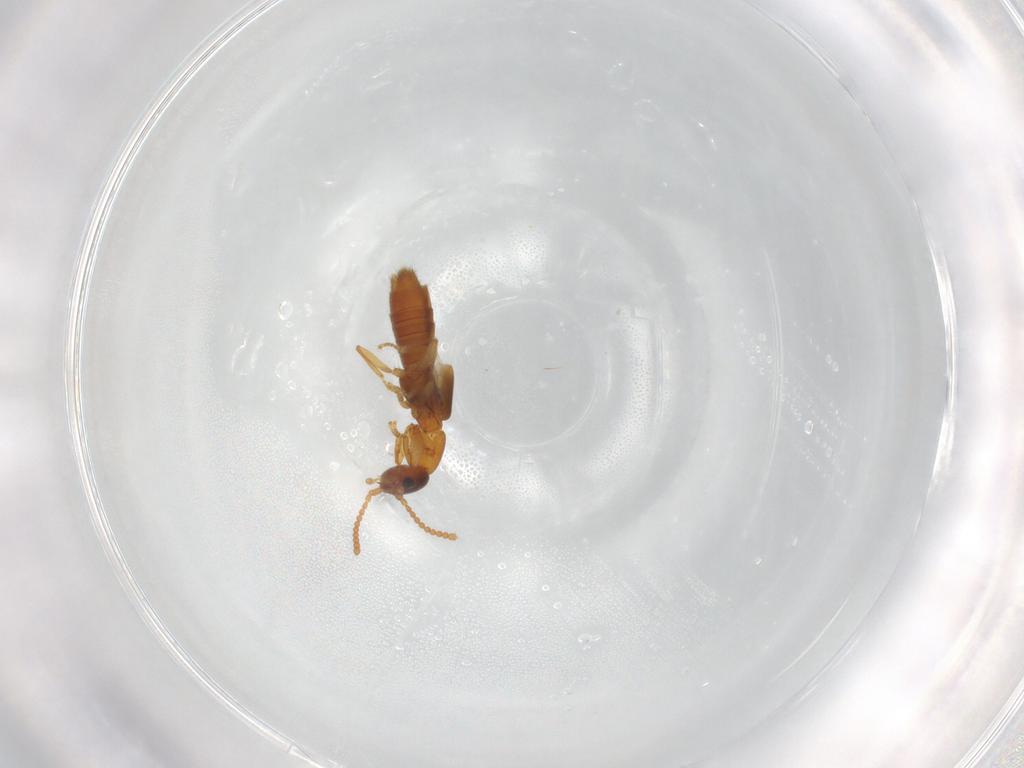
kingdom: Animalia
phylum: Arthropoda
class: Insecta
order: Coleoptera
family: Staphylinidae
